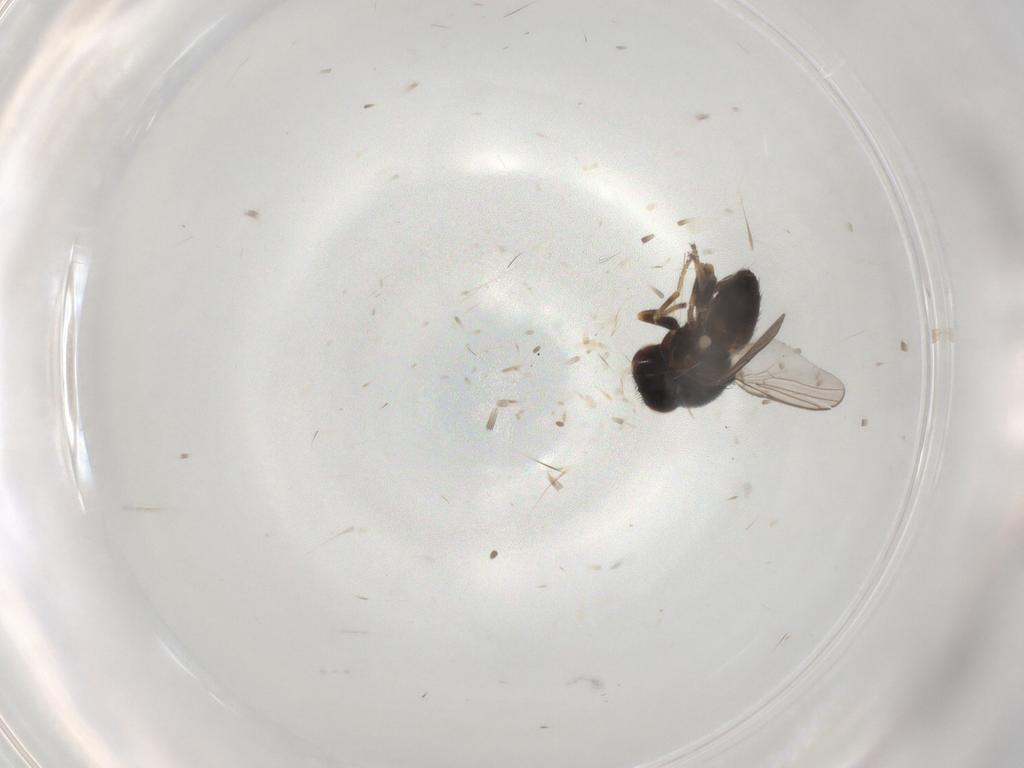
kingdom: Animalia
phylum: Arthropoda
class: Insecta
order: Diptera
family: Chloropidae
